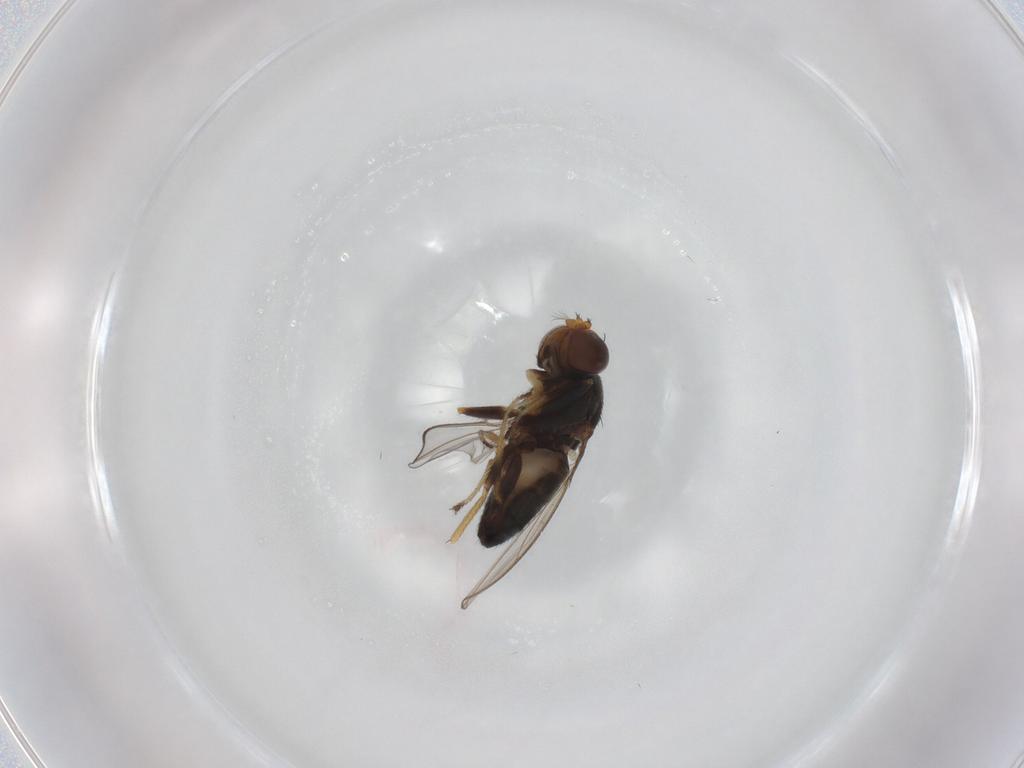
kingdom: Animalia
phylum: Arthropoda
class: Insecta
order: Diptera
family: Ephydridae
